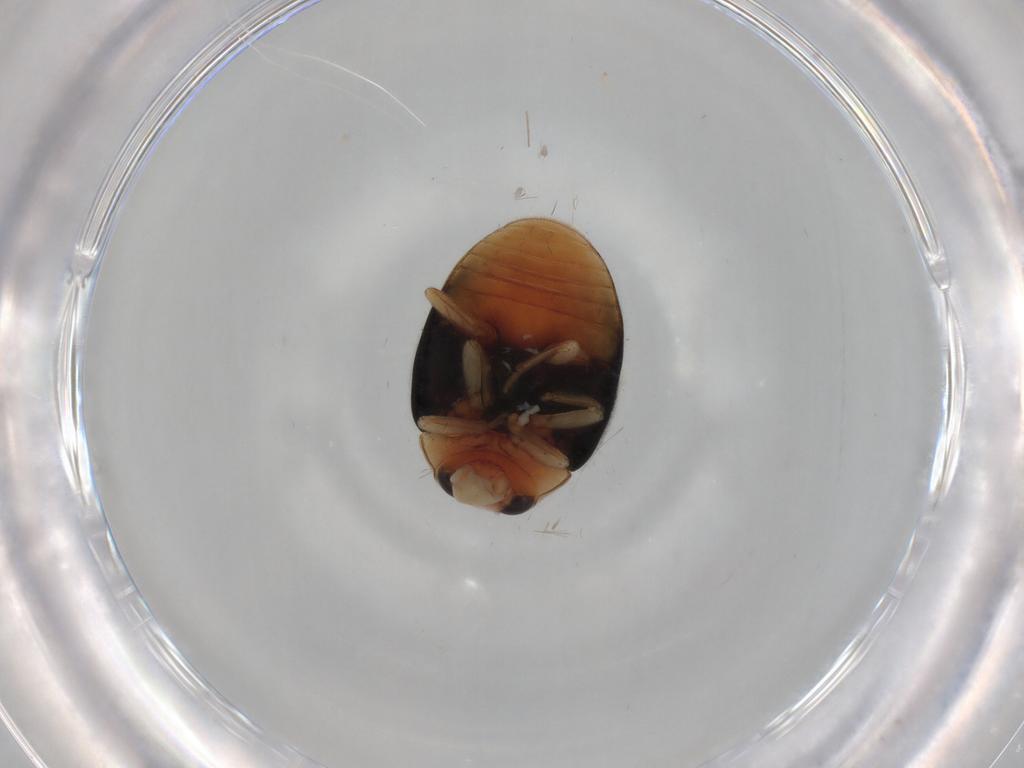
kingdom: Animalia
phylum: Arthropoda
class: Insecta
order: Coleoptera
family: Coccinellidae
